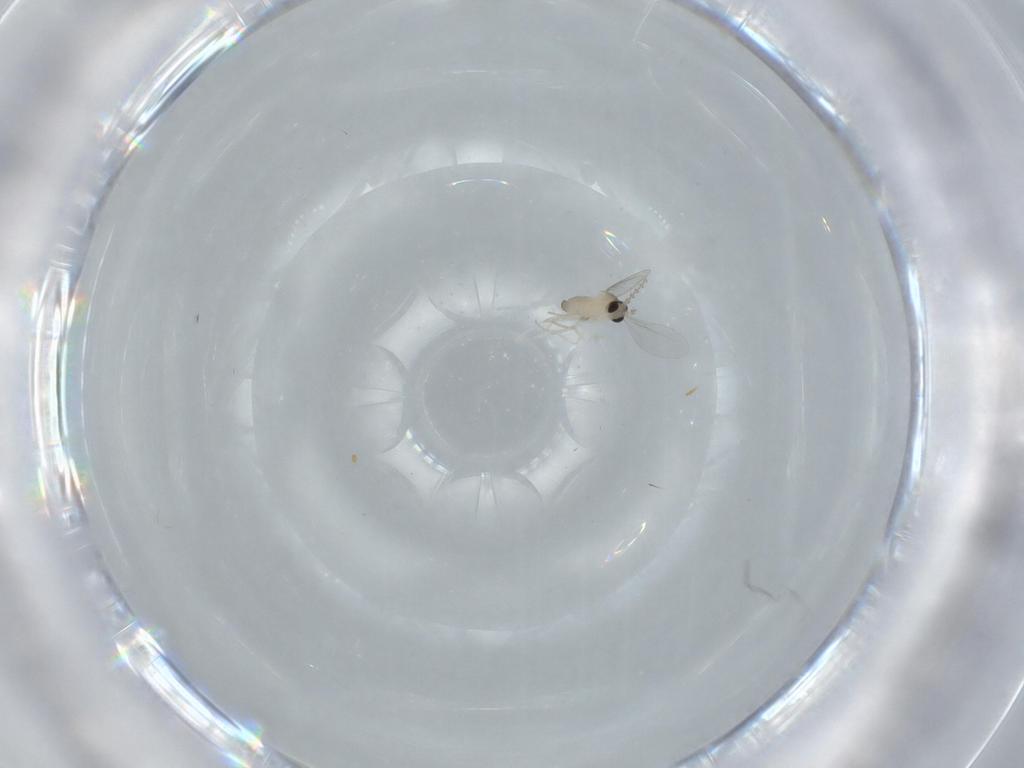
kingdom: Animalia
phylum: Arthropoda
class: Insecta
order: Diptera
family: Cecidomyiidae
